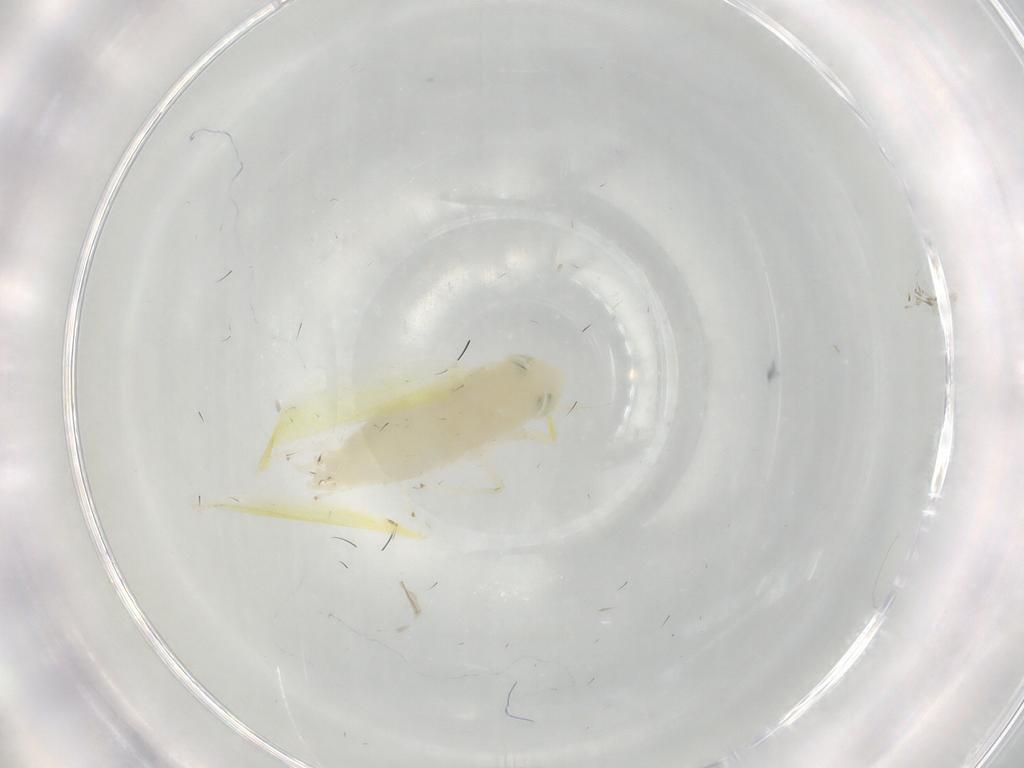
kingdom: Animalia
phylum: Arthropoda
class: Insecta
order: Hemiptera
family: Cicadellidae
